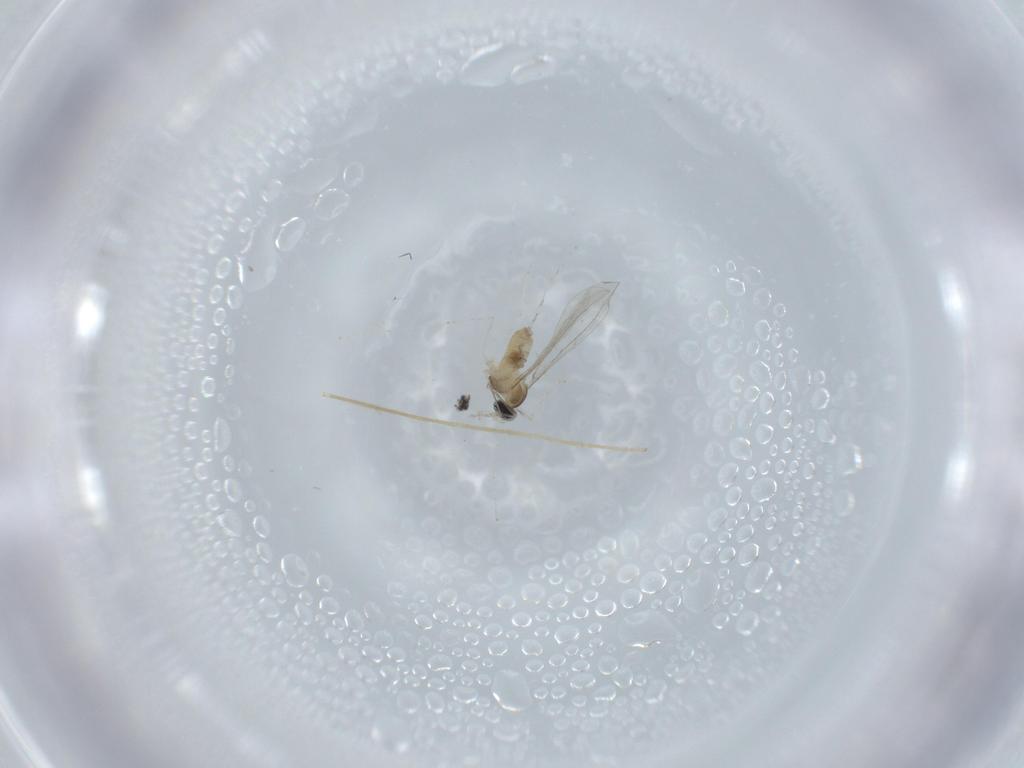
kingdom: Animalia
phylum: Arthropoda
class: Insecta
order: Diptera
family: Cecidomyiidae
